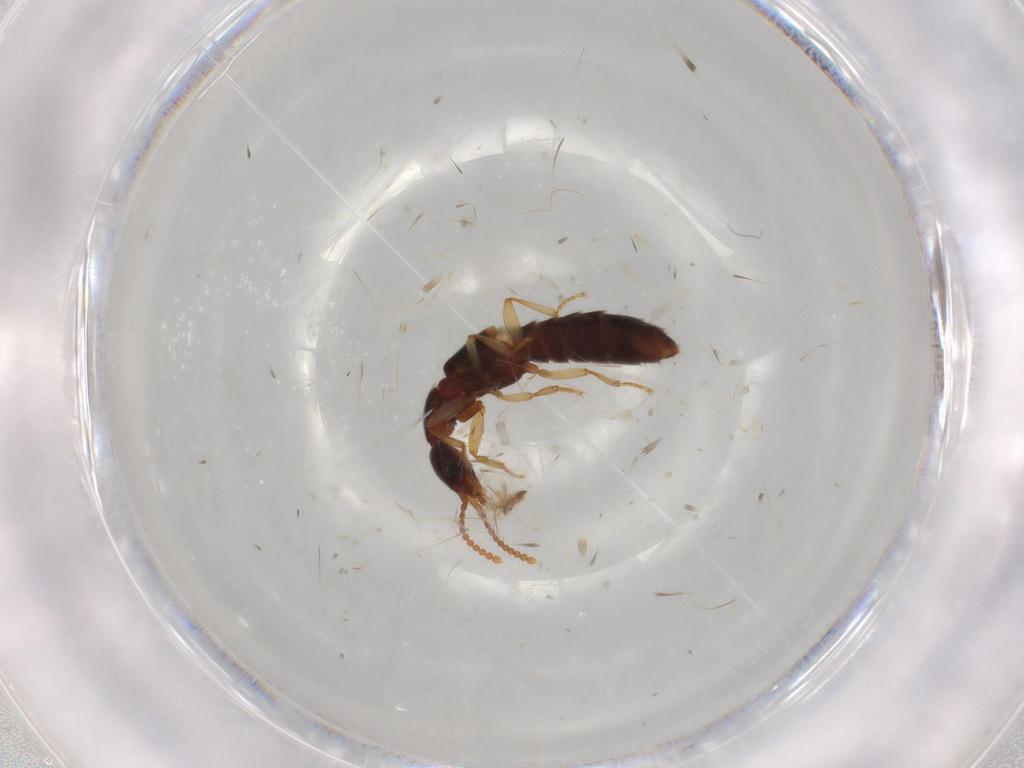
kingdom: Animalia
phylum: Arthropoda
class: Insecta
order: Coleoptera
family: Staphylinidae
